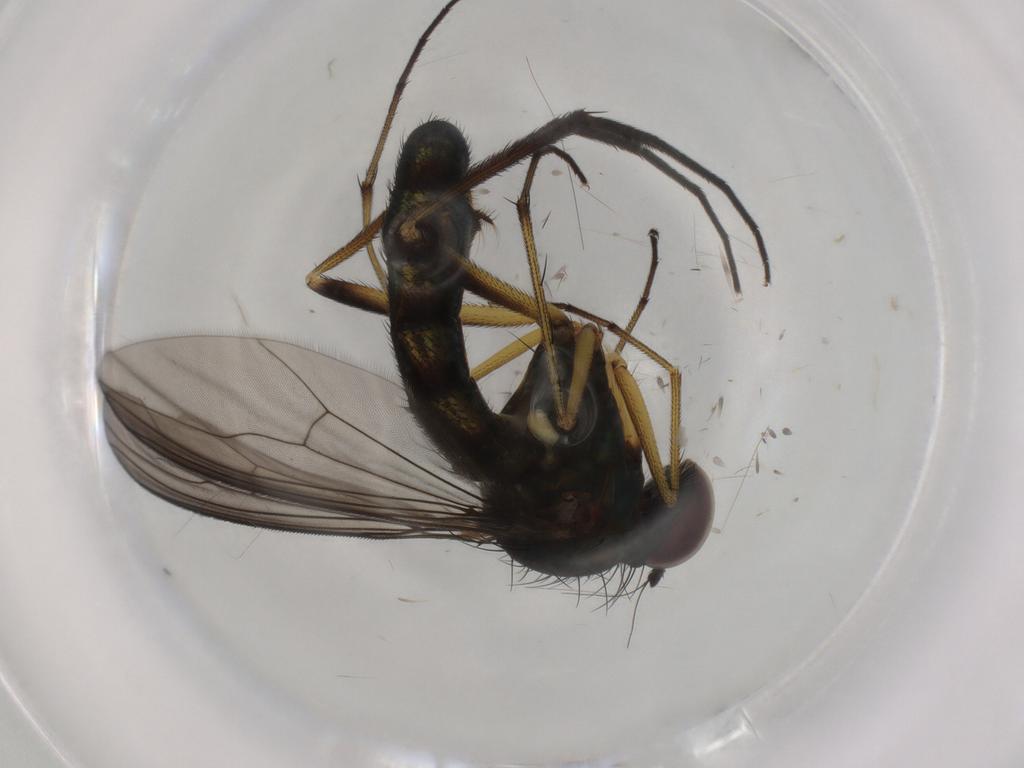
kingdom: Animalia
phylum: Arthropoda
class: Insecta
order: Diptera
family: Dolichopodidae
